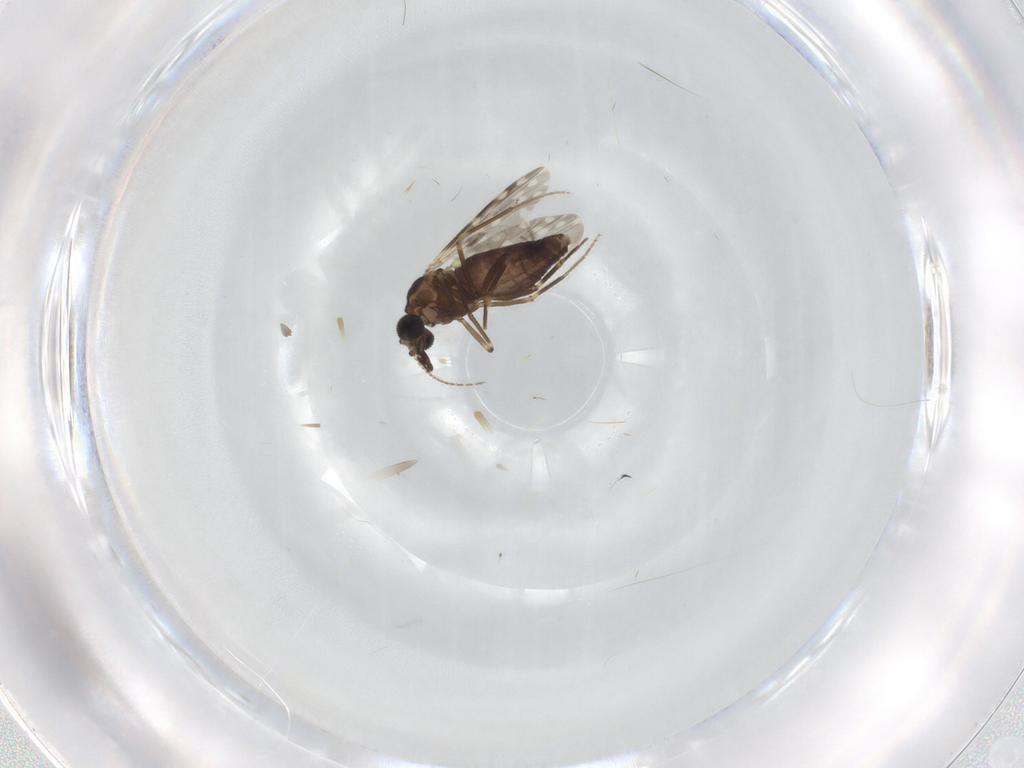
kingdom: Animalia
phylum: Arthropoda
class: Insecta
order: Diptera
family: Ceratopogonidae
